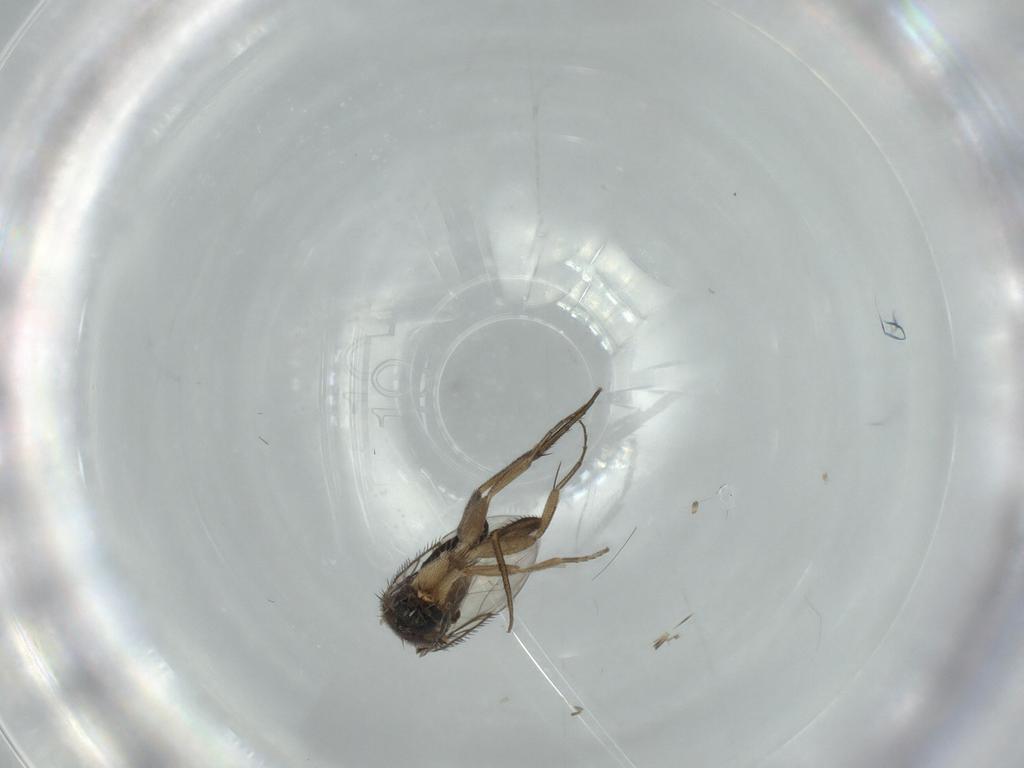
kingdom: Animalia
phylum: Arthropoda
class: Insecta
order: Diptera
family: Phoridae
